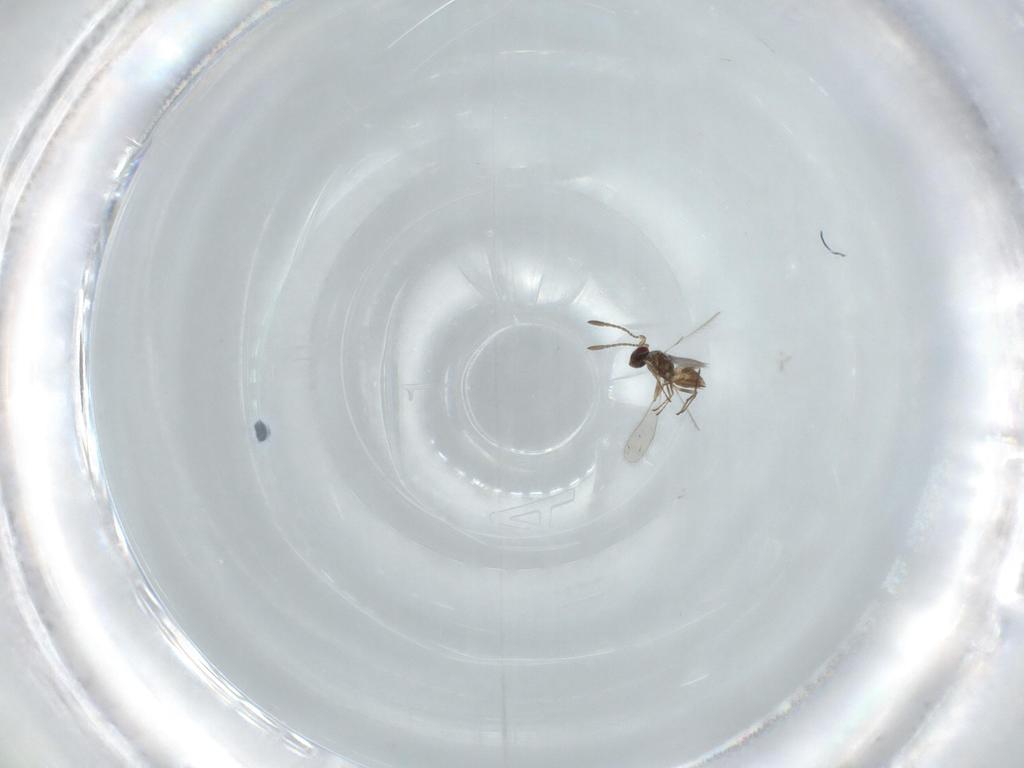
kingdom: Animalia
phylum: Arthropoda
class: Insecta
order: Hymenoptera
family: Mymaridae
